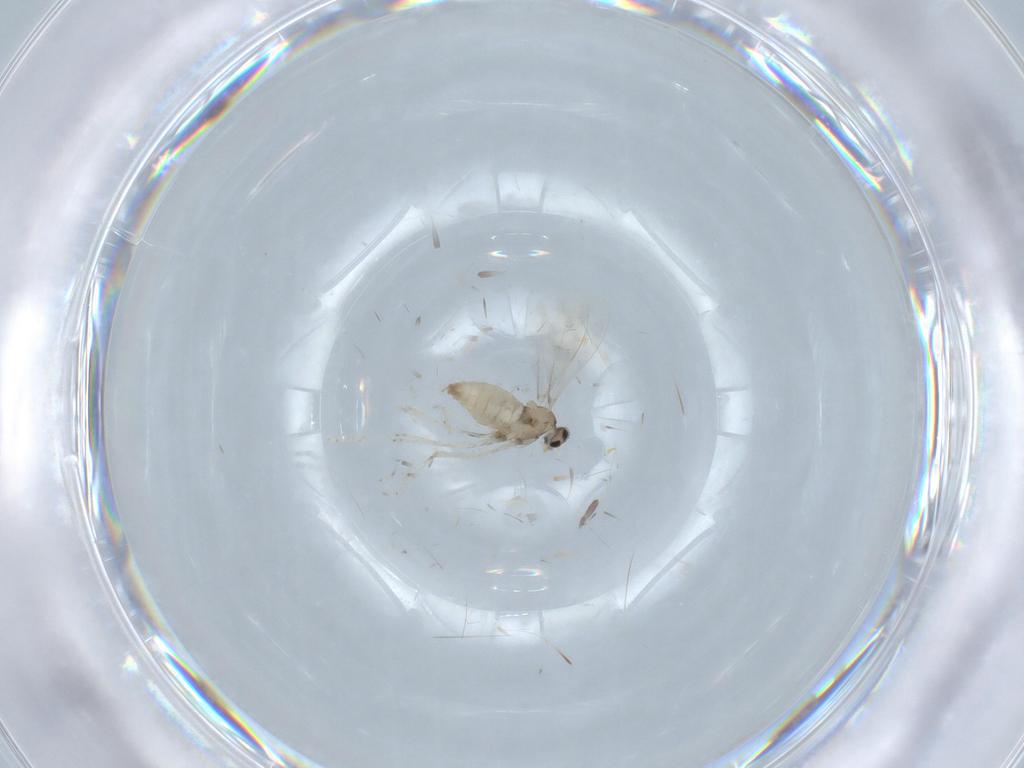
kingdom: Animalia
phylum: Arthropoda
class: Insecta
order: Diptera
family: Cecidomyiidae
